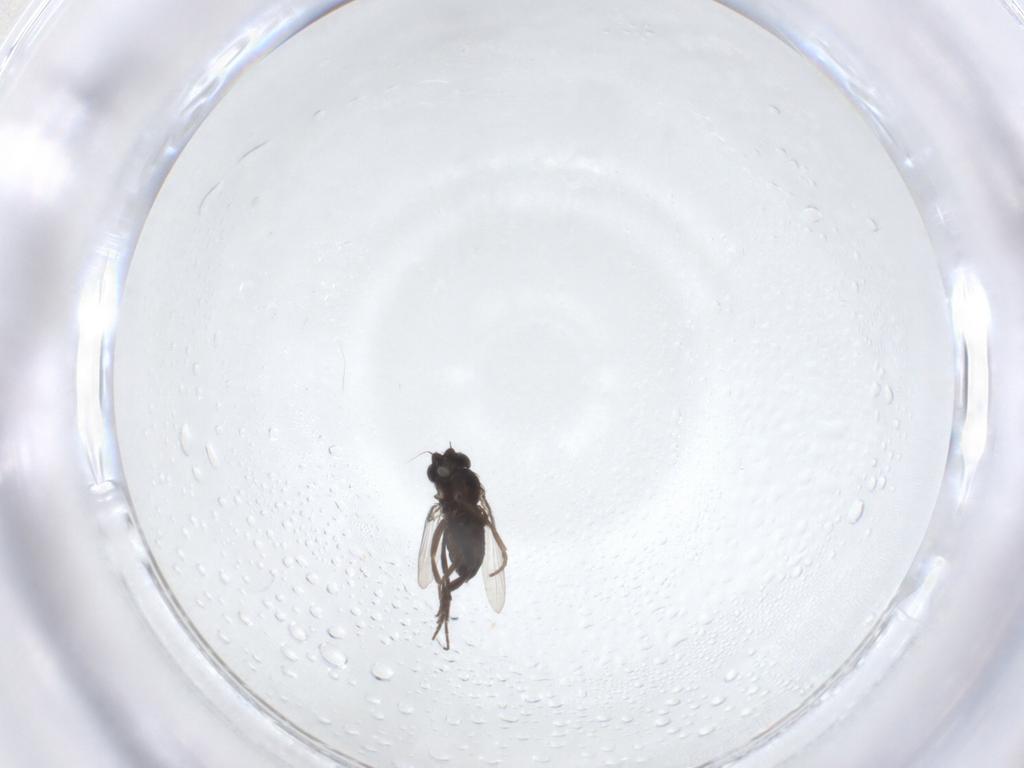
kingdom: Animalia
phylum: Arthropoda
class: Insecta
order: Diptera
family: Phoridae
